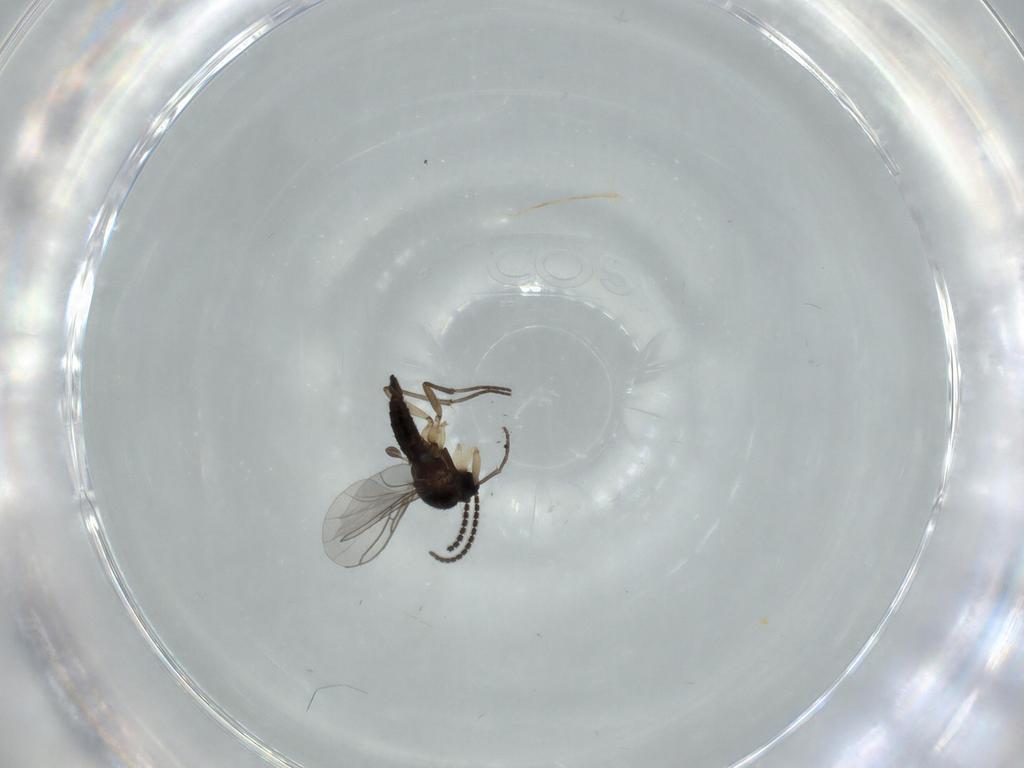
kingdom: Animalia
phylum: Arthropoda
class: Insecta
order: Diptera
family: Sciaridae
